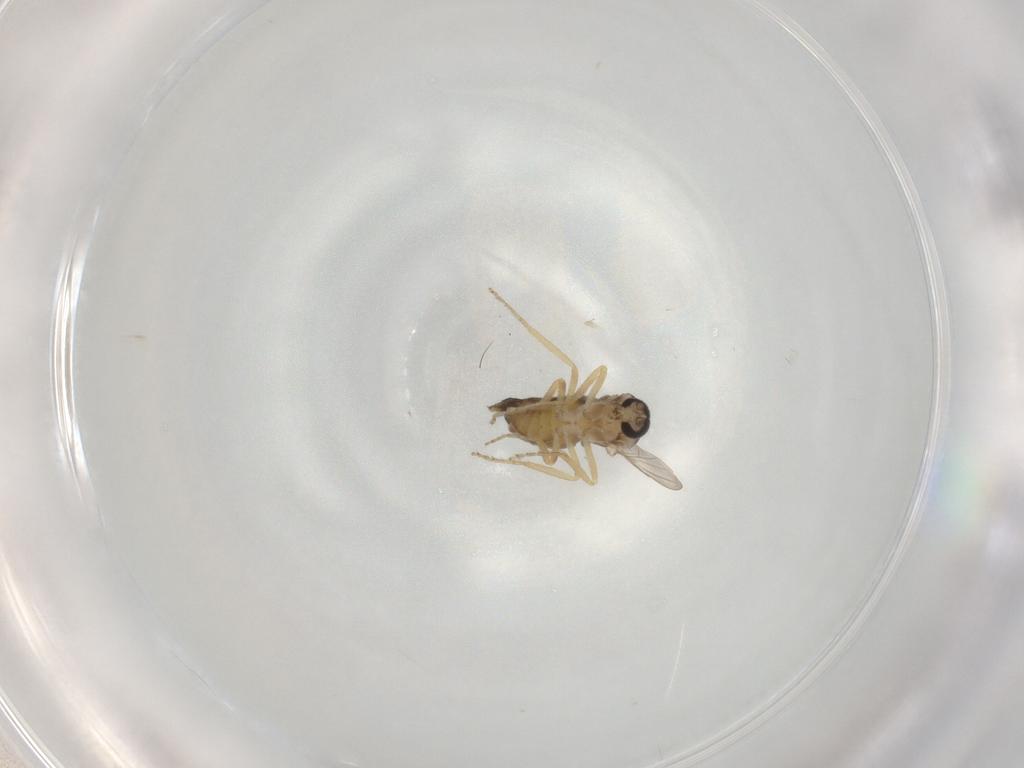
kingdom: Animalia
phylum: Arthropoda
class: Insecta
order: Diptera
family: Ceratopogonidae
